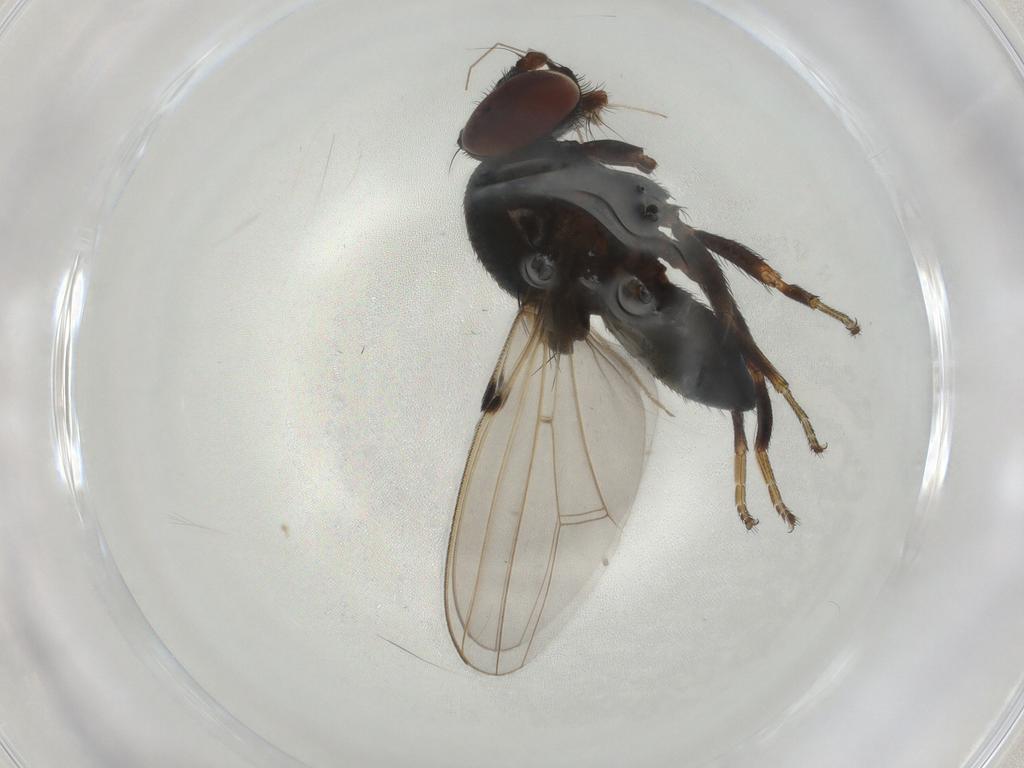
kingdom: Animalia
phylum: Arthropoda
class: Insecta
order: Diptera
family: Milichiidae
